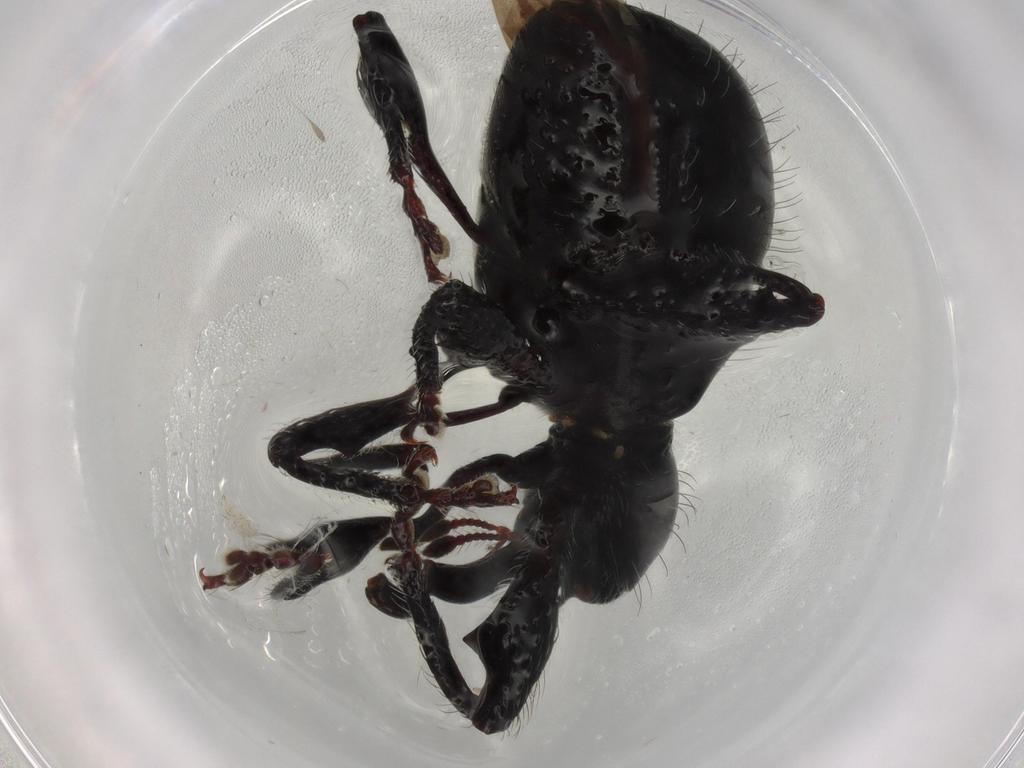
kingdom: Animalia
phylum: Arthropoda
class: Insecta
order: Coleoptera
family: Curculionidae
